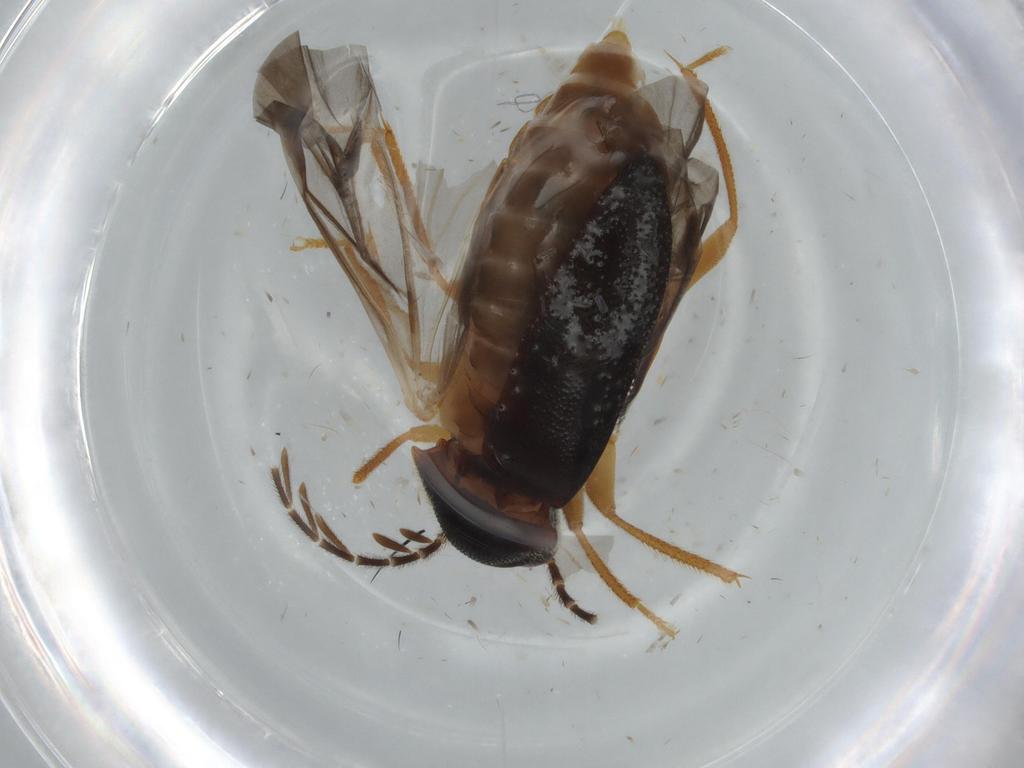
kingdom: Animalia
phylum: Arthropoda
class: Insecta
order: Coleoptera
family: Ptilodactylidae
